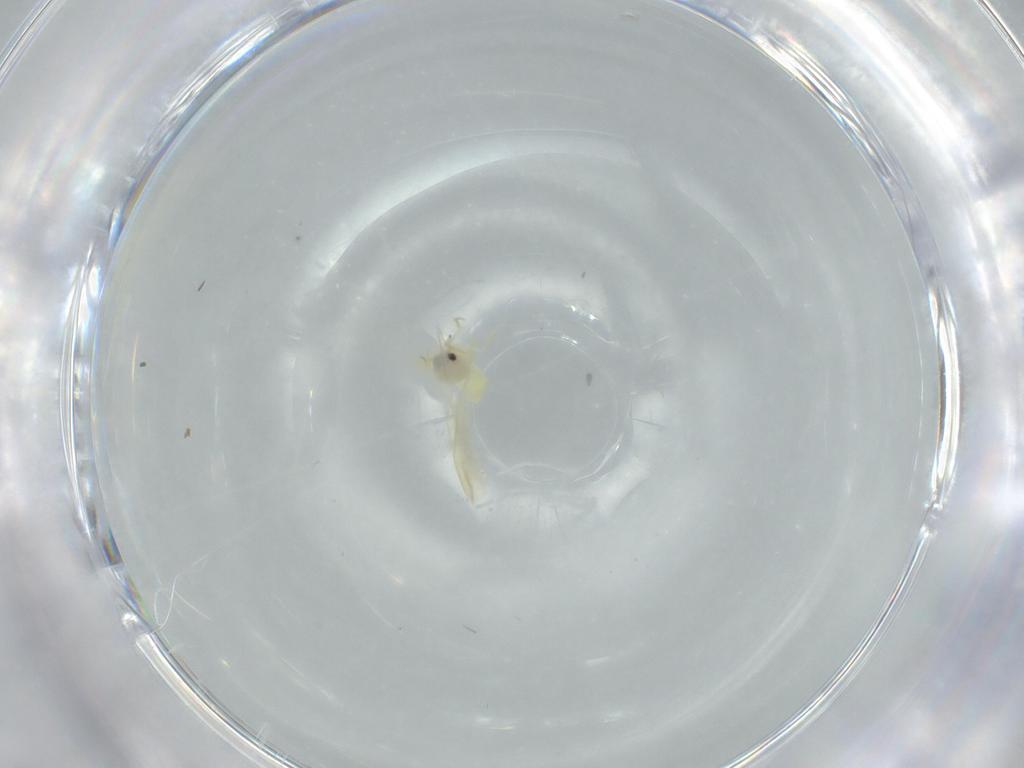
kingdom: Animalia
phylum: Arthropoda
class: Insecta
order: Diptera
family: Sciaridae
